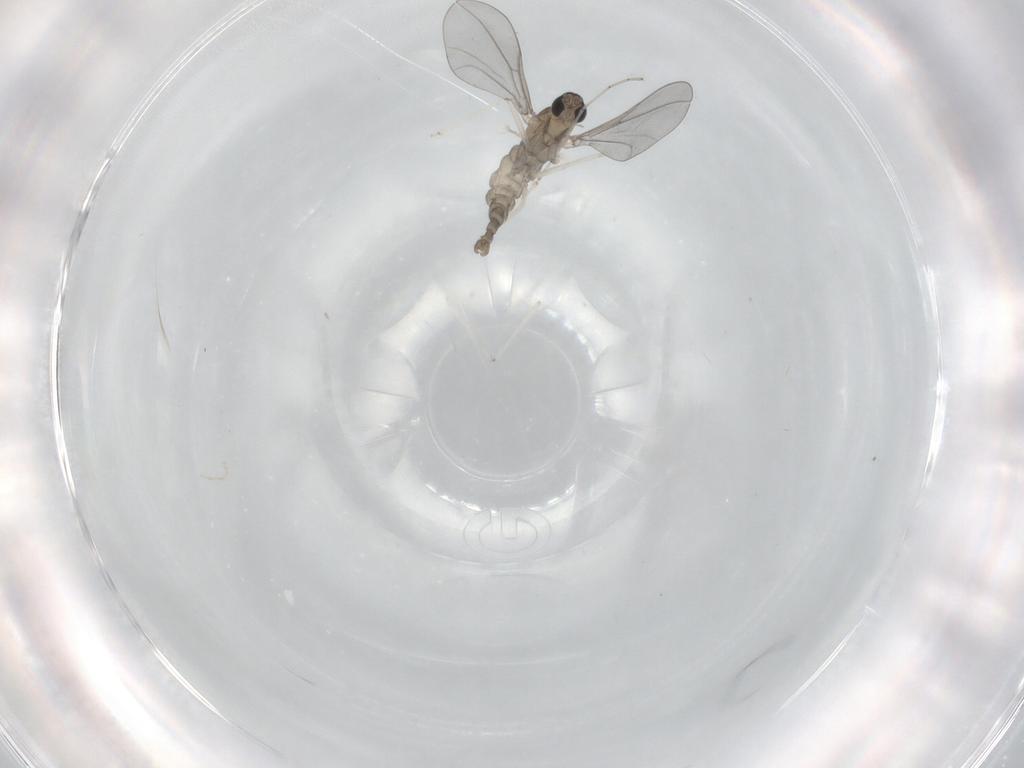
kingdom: Animalia
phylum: Arthropoda
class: Insecta
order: Diptera
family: Cecidomyiidae
